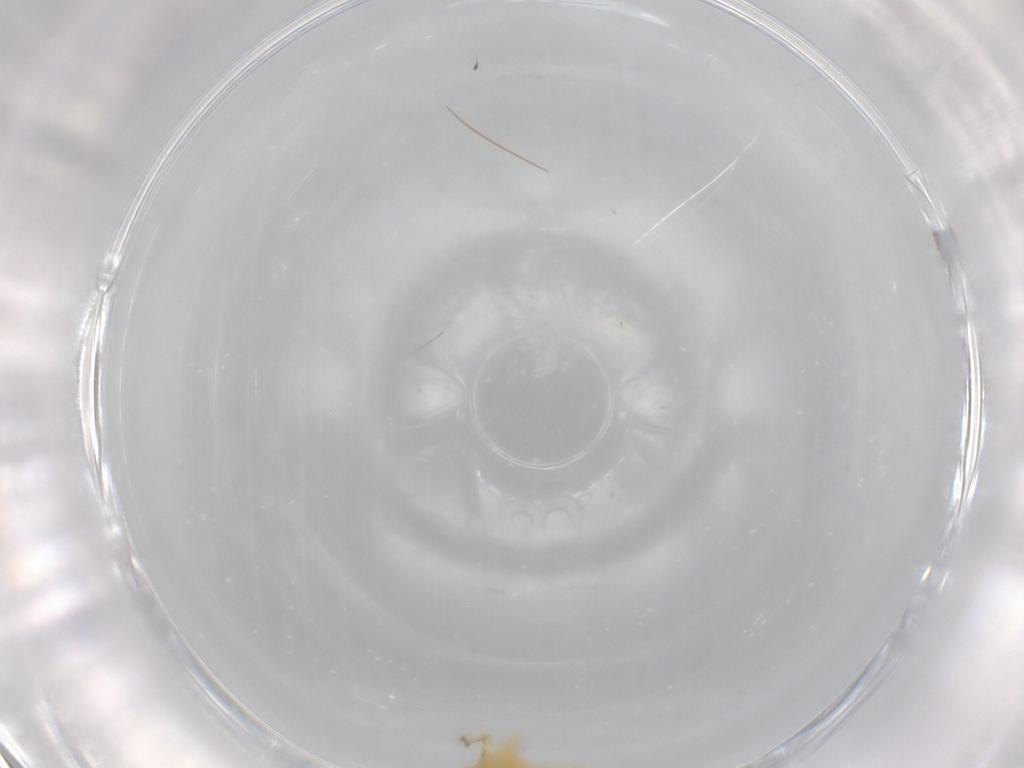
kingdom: Animalia
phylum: Arthropoda
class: Insecta
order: Hemiptera
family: Cicadellidae
